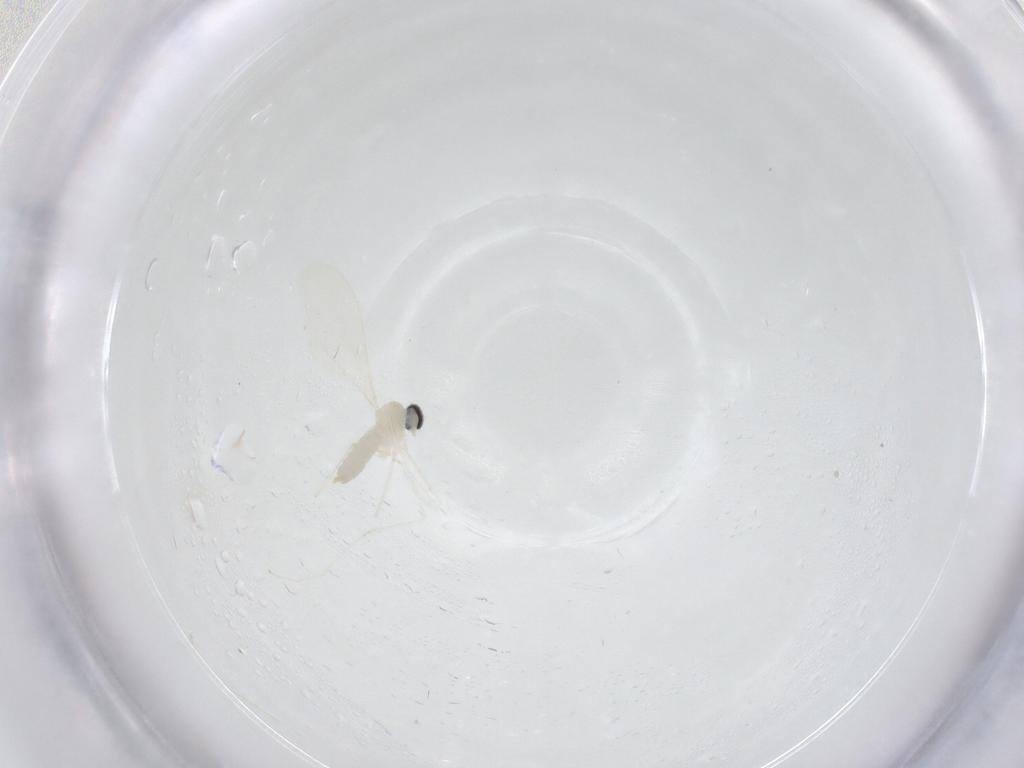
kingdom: Animalia
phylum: Arthropoda
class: Insecta
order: Diptera
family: Cecidomyiidae
